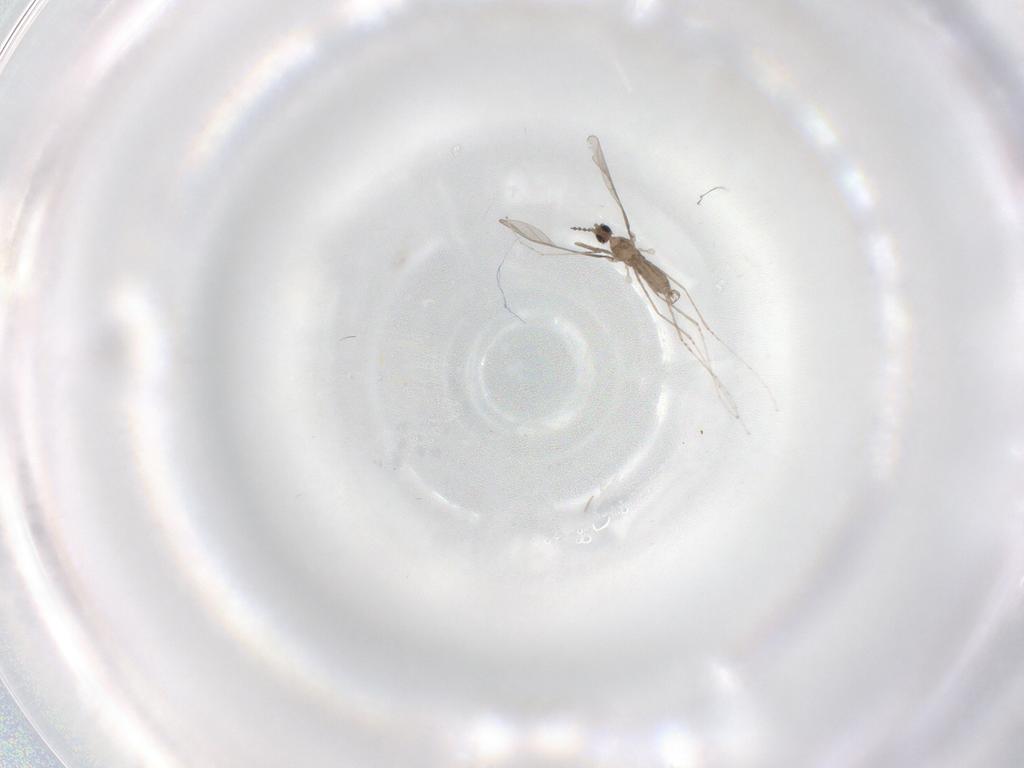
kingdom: Animalia
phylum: Arthropoda
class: Insecta
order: Diptera
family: Cecidomyiidae
